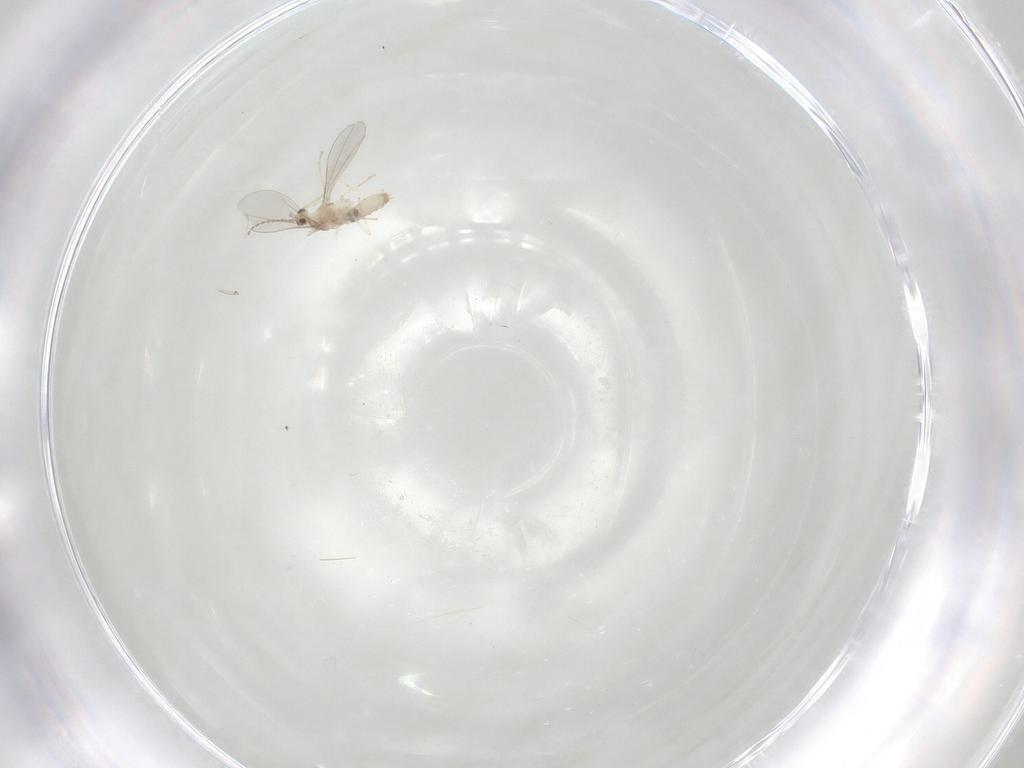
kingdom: Animalia
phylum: Arthropoda
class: Insecta
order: Diptera
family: Cecidomyiidae
